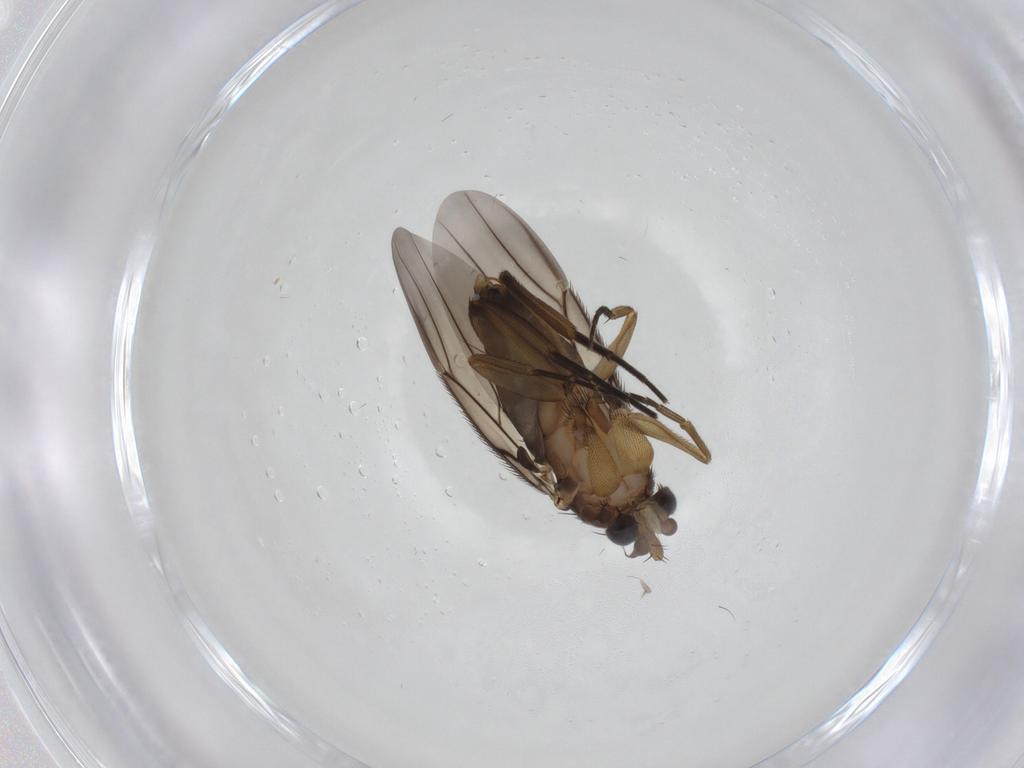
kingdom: Animalia
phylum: Arthropoda
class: Insecta
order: Diptera
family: Phoridae
